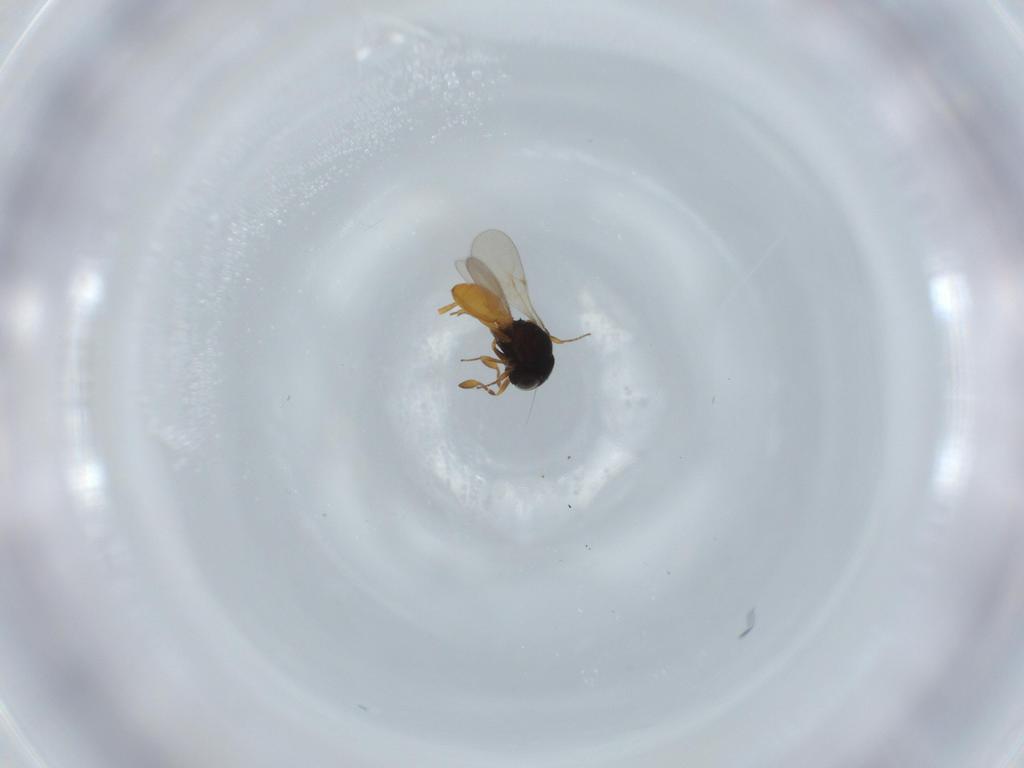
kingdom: Animalia
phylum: Arthropoda
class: Insecta
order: Hymenoptera
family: Scelionidae
